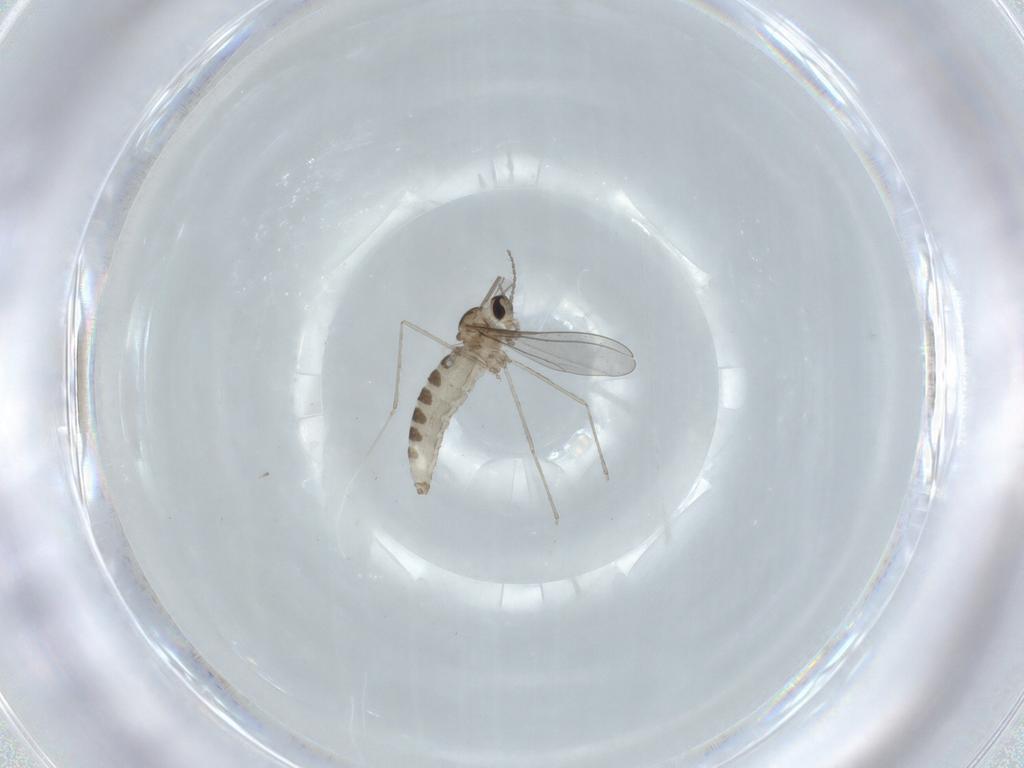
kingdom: Animalia
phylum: Arthropoda
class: Insecta
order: Diptera
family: Cecidomyiidae
